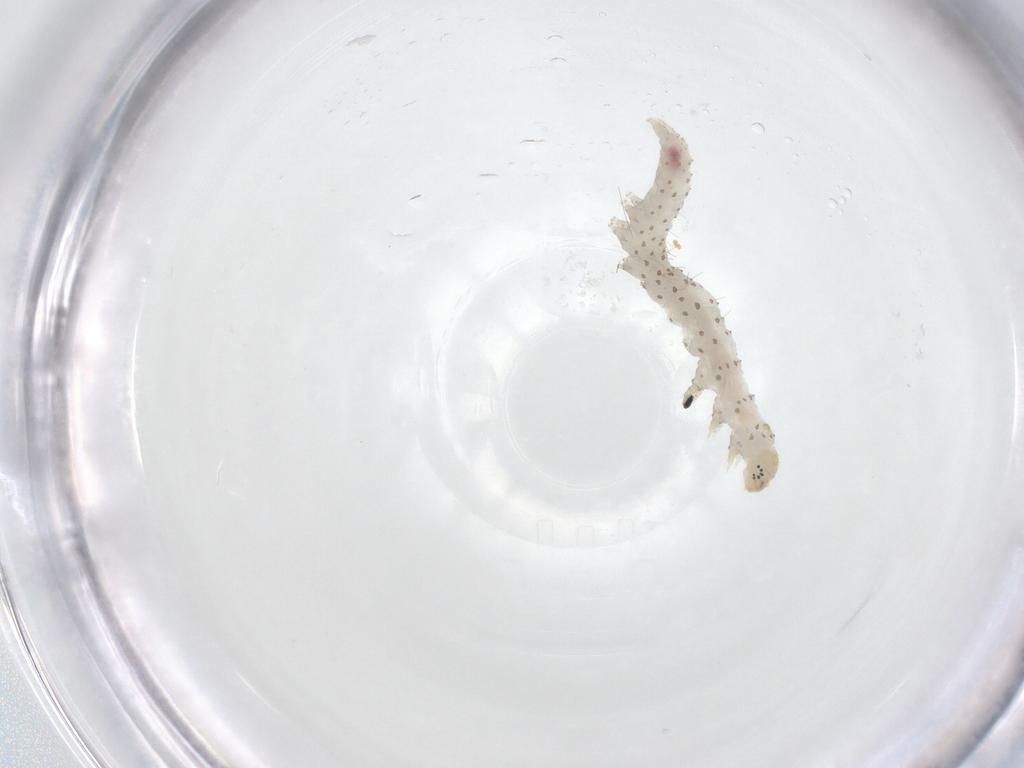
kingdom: Animalia
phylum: Arthropoda
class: Insecta
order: Lepidoptera
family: Erebidae
